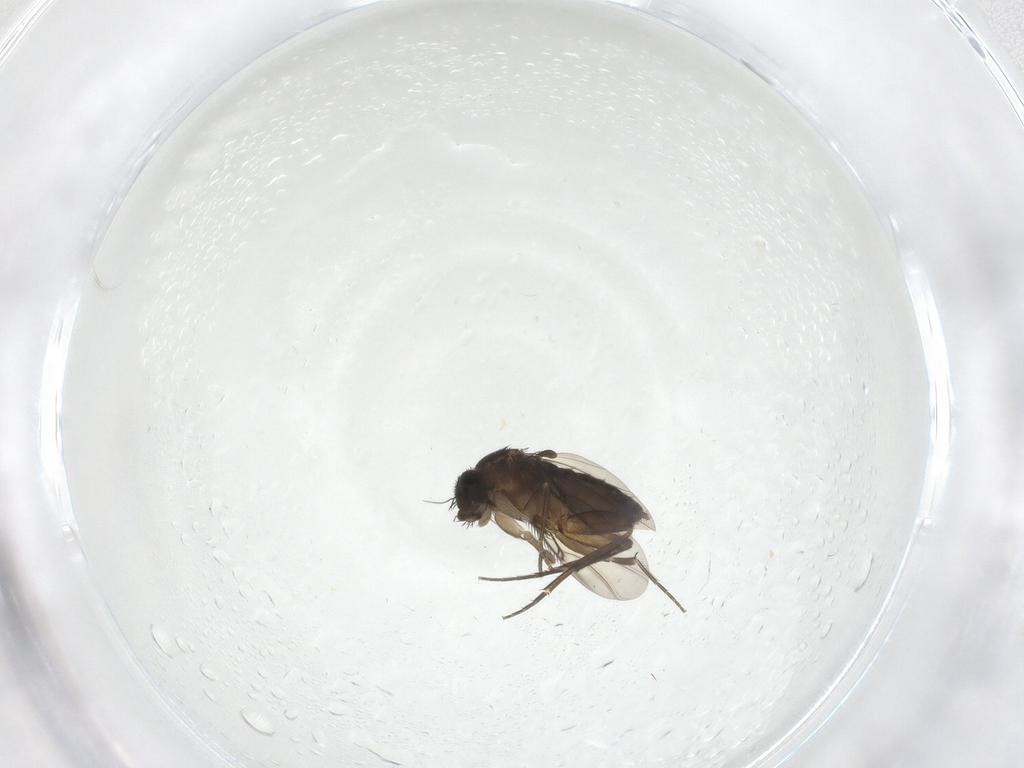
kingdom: Animalia
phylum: Arthropoda
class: Insecta
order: Diptera
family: Phoridae
